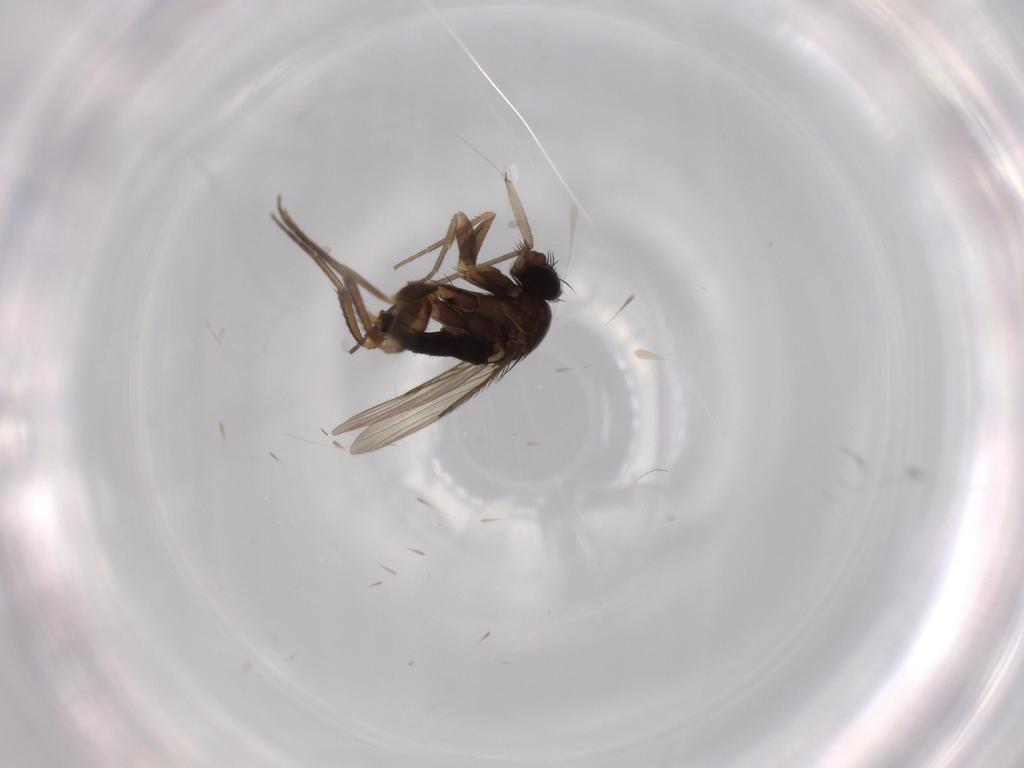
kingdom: Animalia
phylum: Arthropoda
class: Insecta
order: Diptera
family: Phoridae
